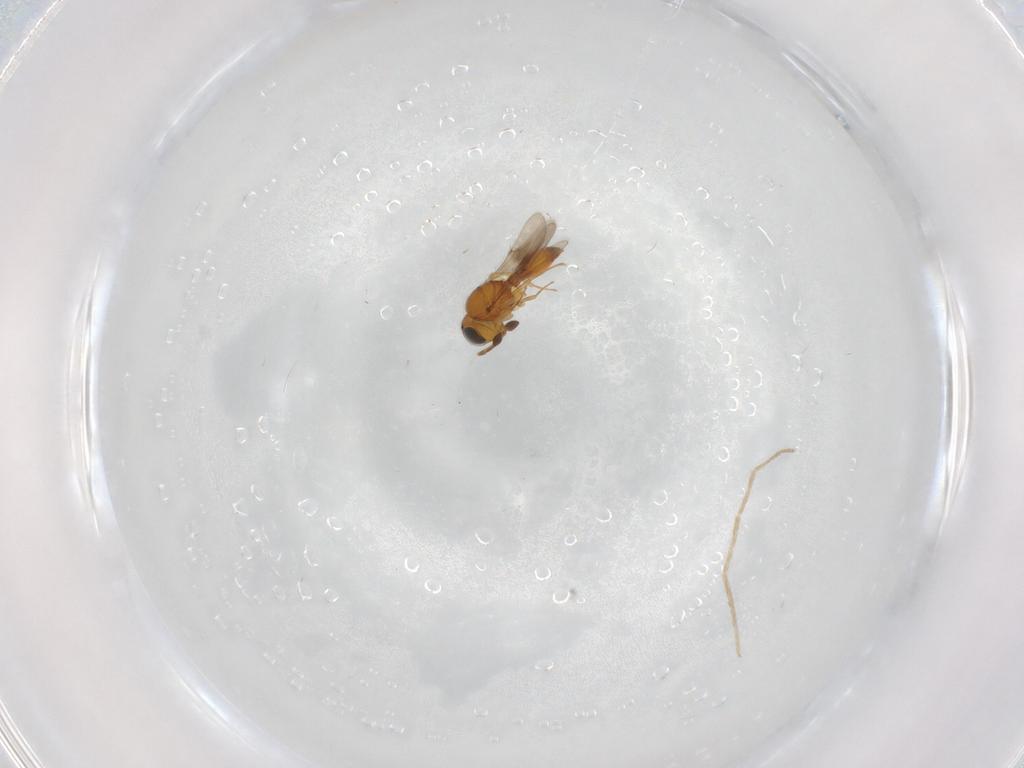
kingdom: Animalia
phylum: Arthropoda
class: Insecta
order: Hymenoptera
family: Scelionidae
